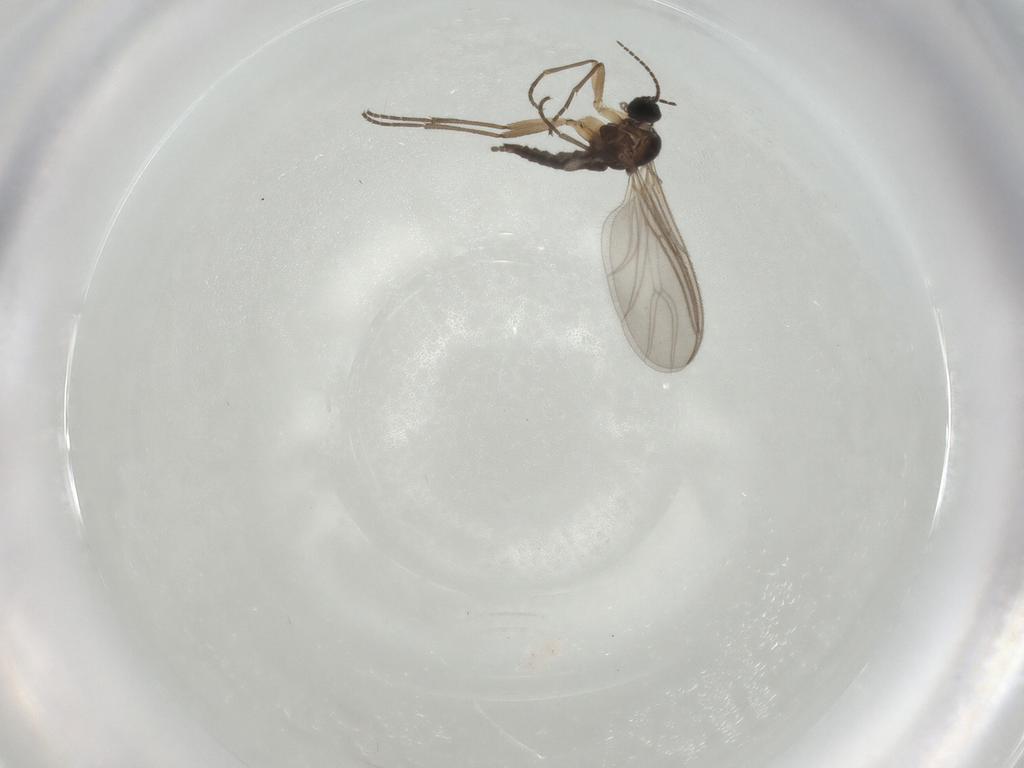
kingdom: Animalia
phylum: Arthropoda
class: Insecta
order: Diptera
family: Sciaridae
